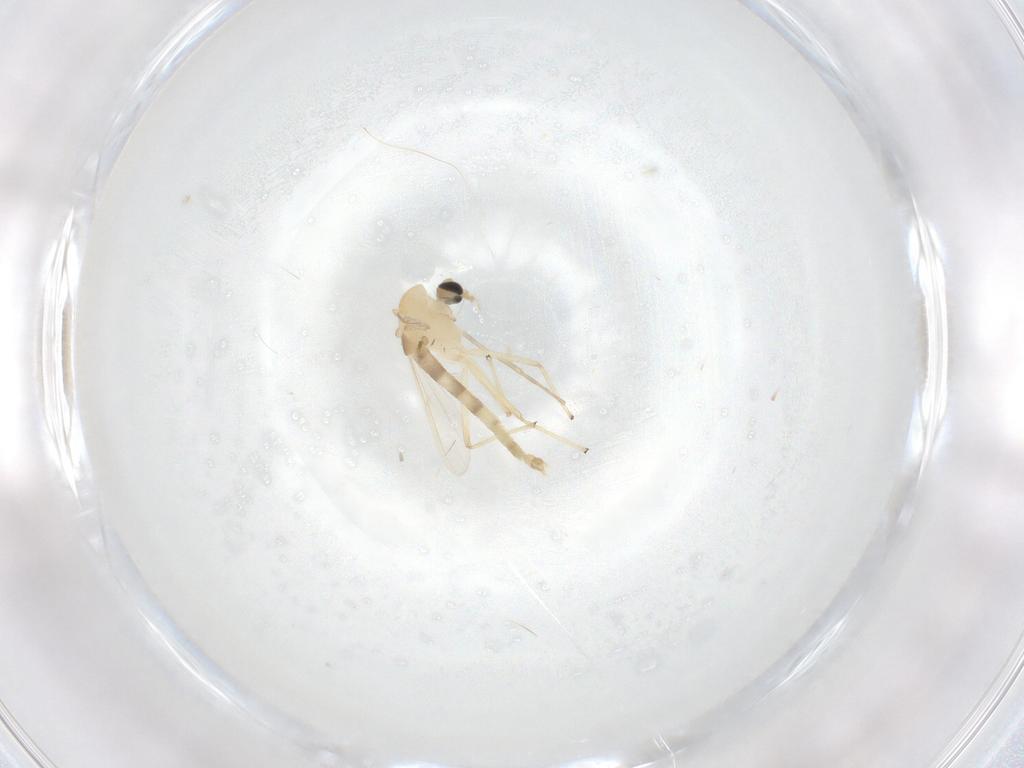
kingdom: Animalia
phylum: Arthropoda
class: Insecta
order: Diptera
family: Chironomidae
